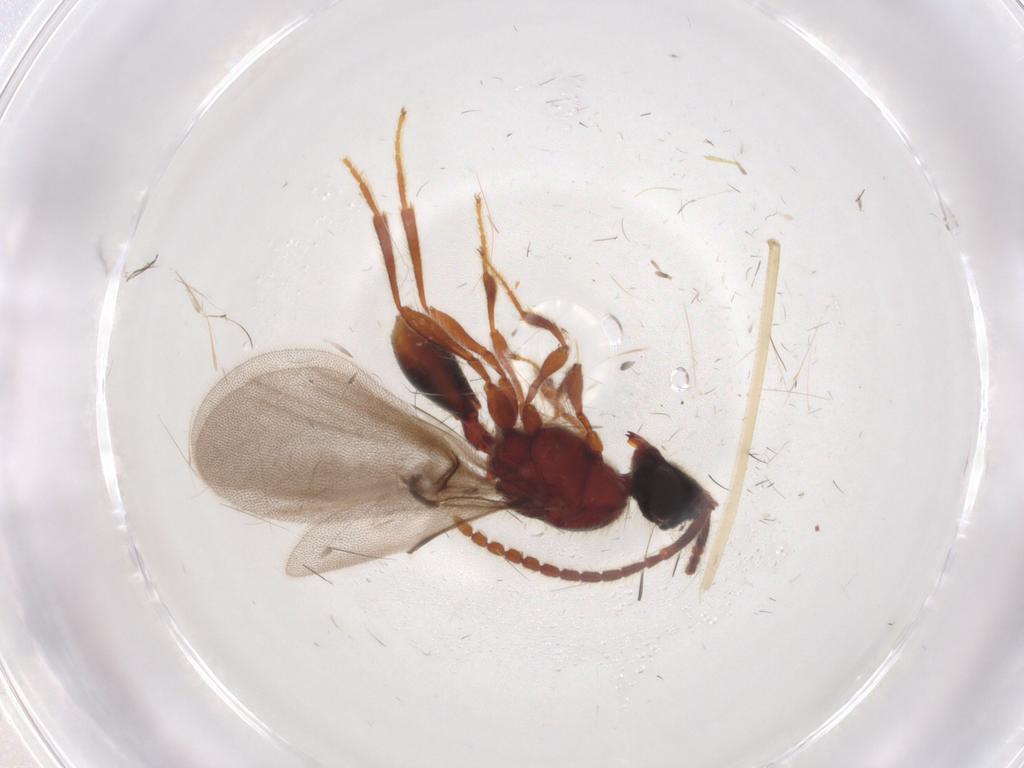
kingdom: Animalia
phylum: Arthropoda
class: Insecta
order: Hymenoptera
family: Diapriidae
